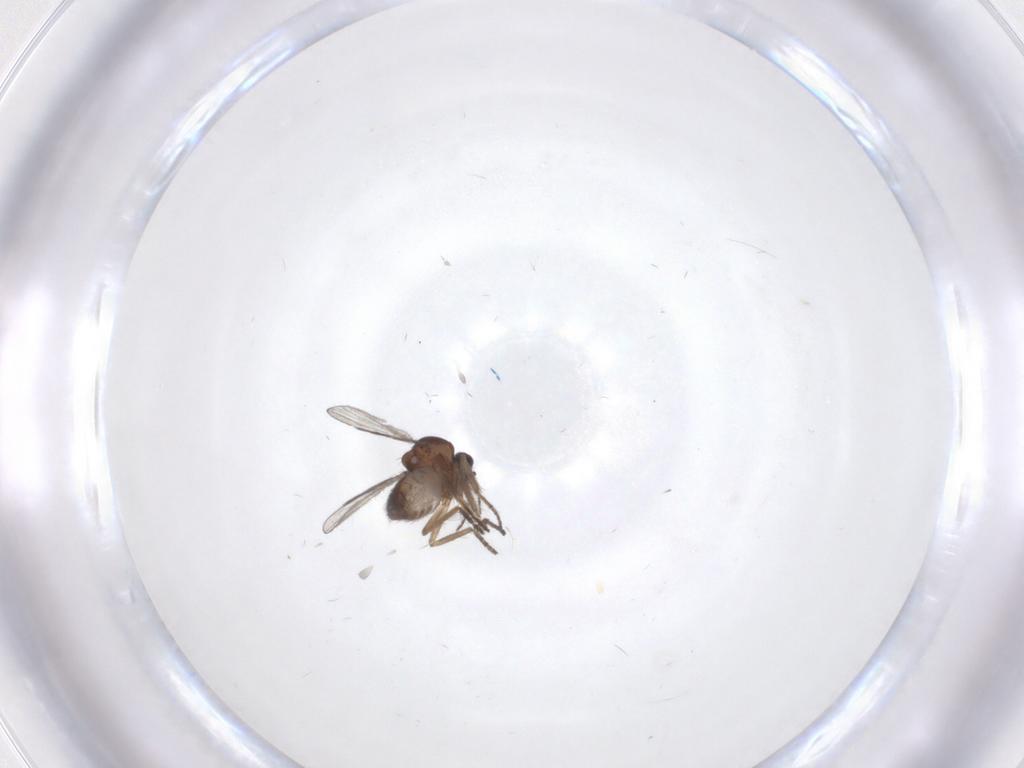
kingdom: Animalia
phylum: Arthropoda
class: Insecta
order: Diptera
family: Ceratopogonidae
